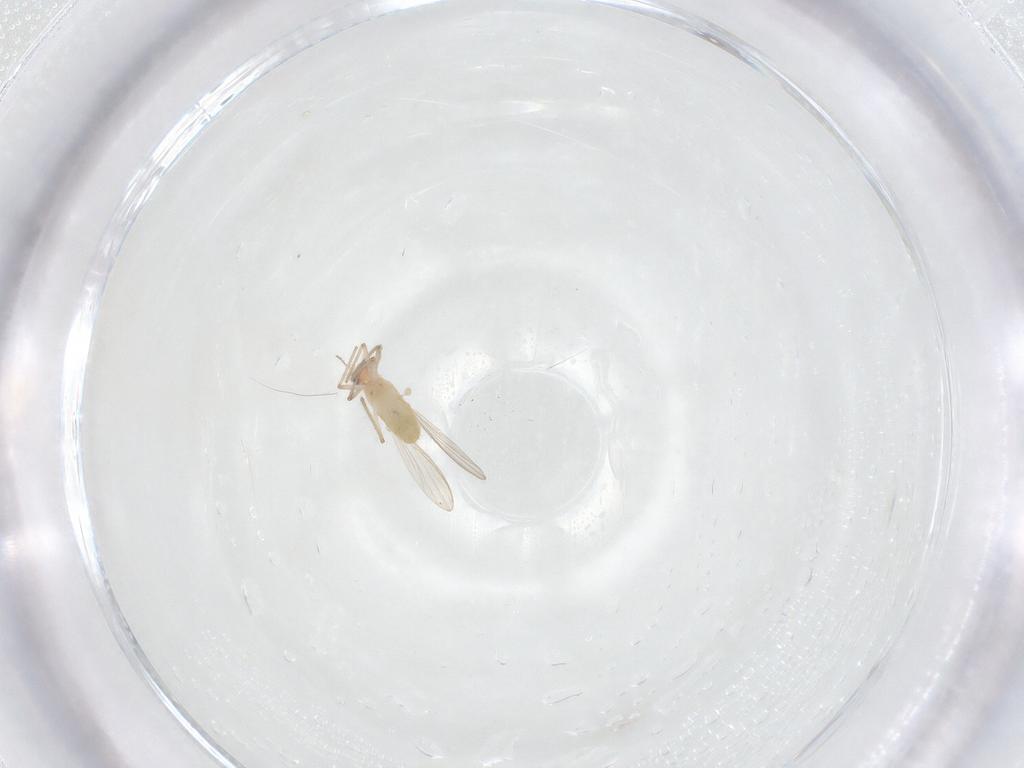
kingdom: Animalia
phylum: Arthropoda
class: Insecta
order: Diptera
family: Chironomidae
